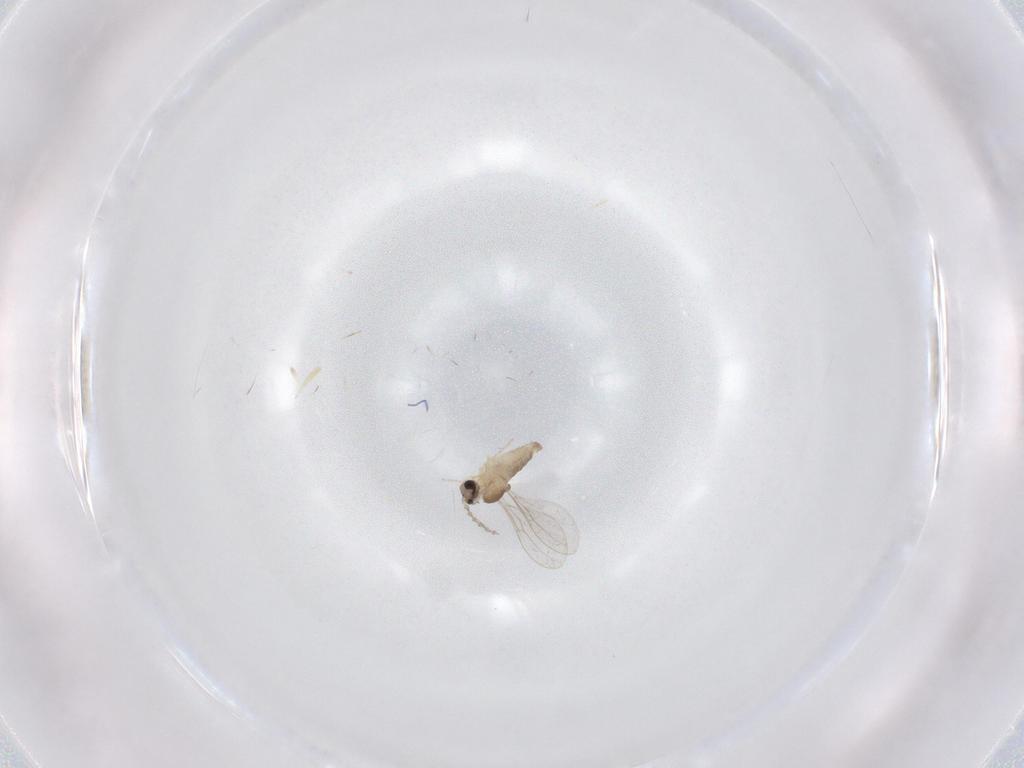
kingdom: Animalia
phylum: Arthropoda
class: Insecta
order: Diptera
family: Cecidomyiidae
